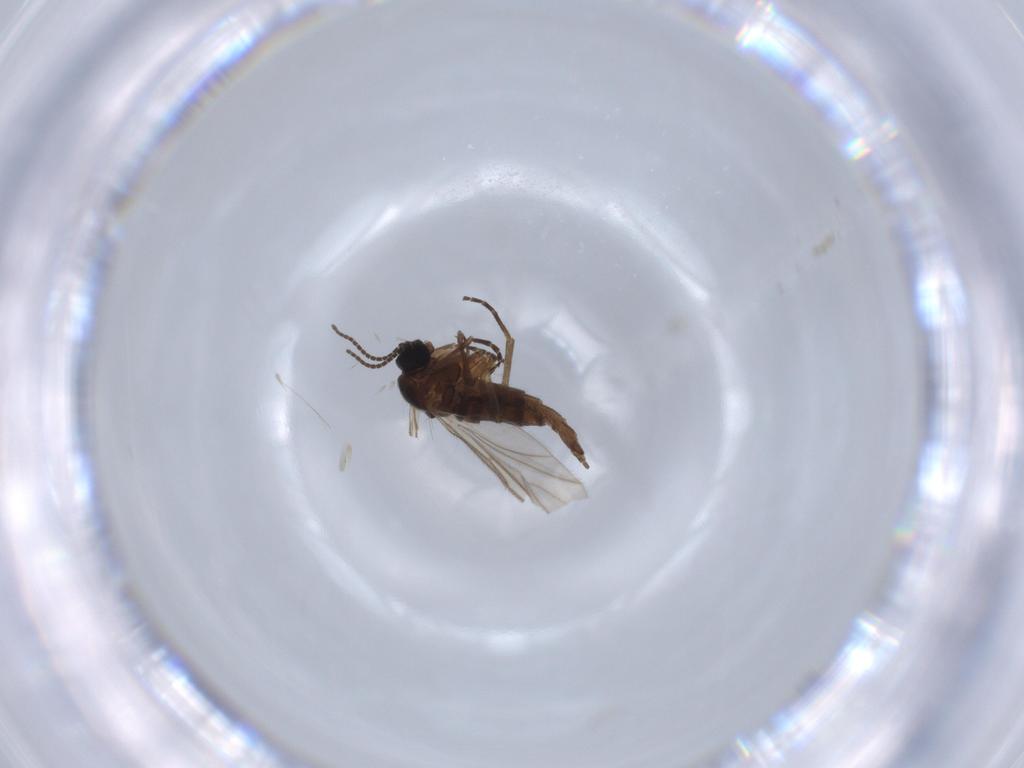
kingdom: Animalia
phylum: Arthropoda
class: Insecta
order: Diptera
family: Sciaridae
